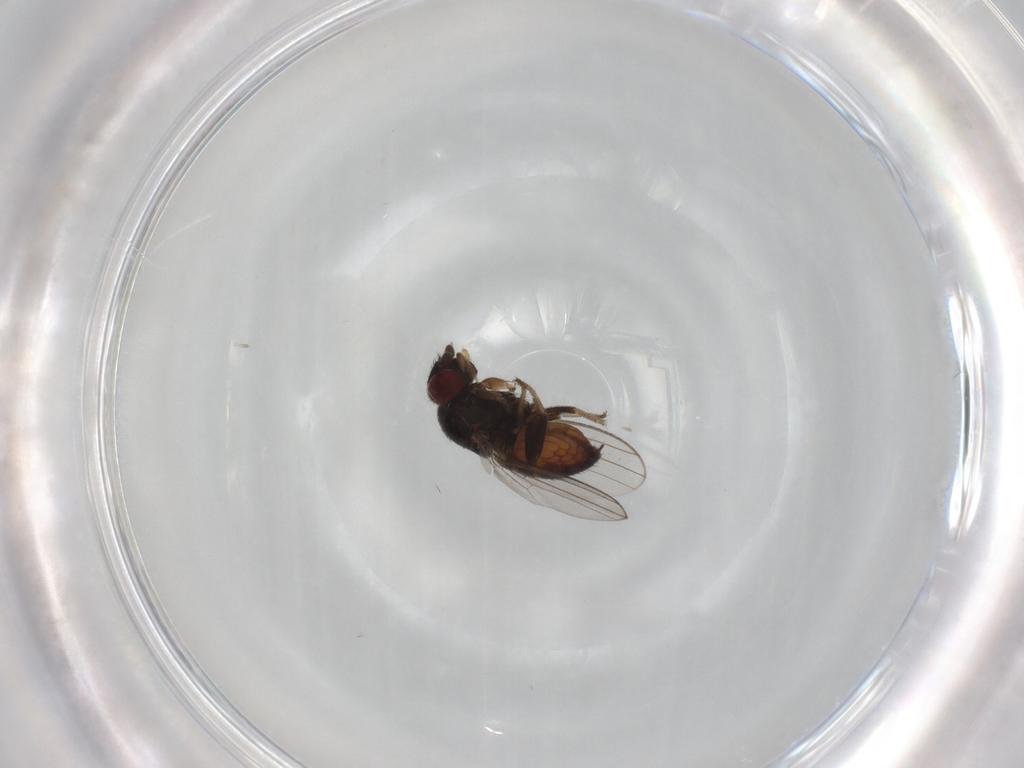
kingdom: Animalia
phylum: Arthropoda
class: Insecta
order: Diptera
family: Milichiidae
